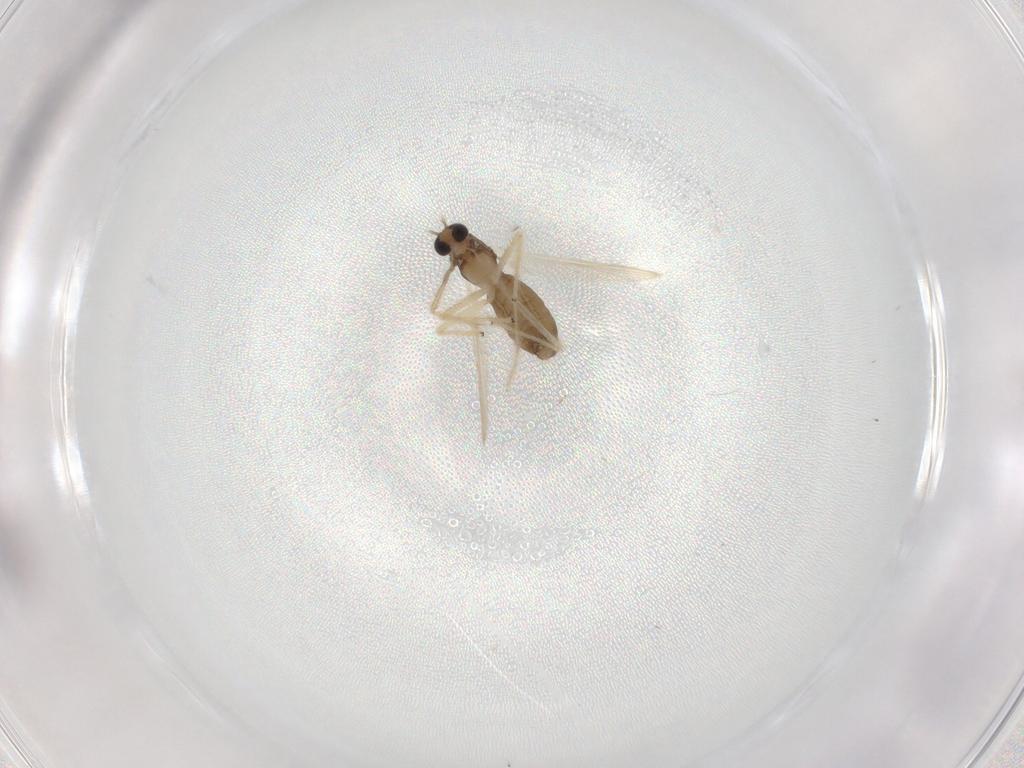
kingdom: Animalia
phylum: Arthropoda
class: Insecta
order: Diptera
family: Chironomidae
